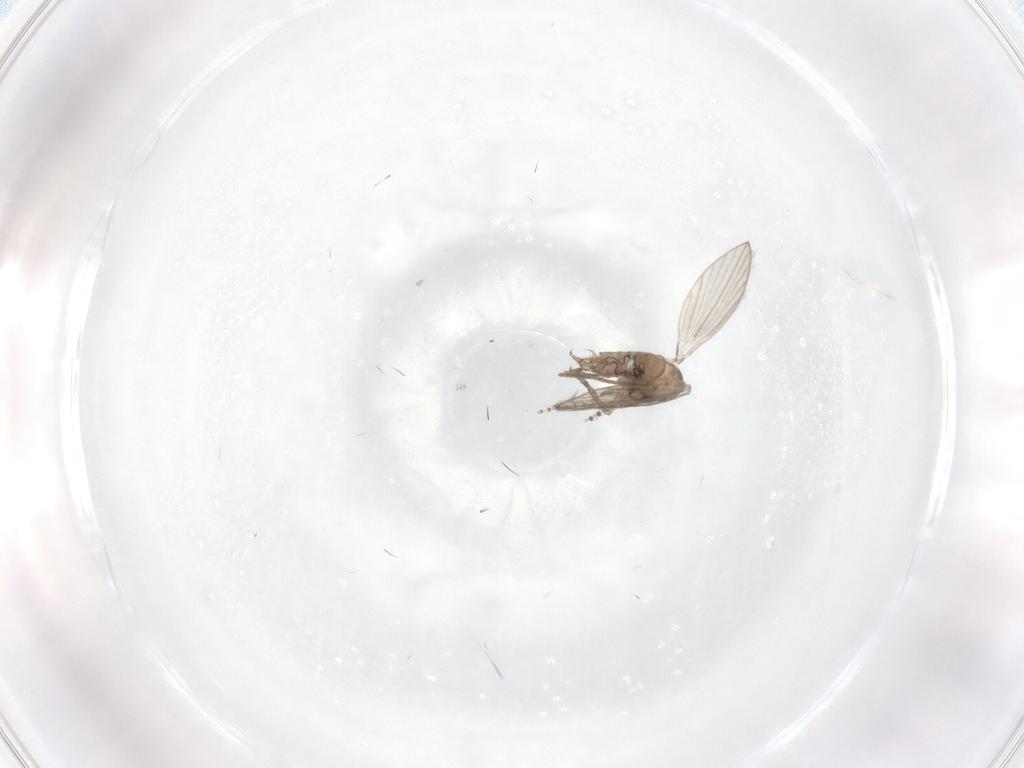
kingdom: Animalia
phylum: Arthropoda
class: Insecta
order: Diptera
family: Psychodidae
